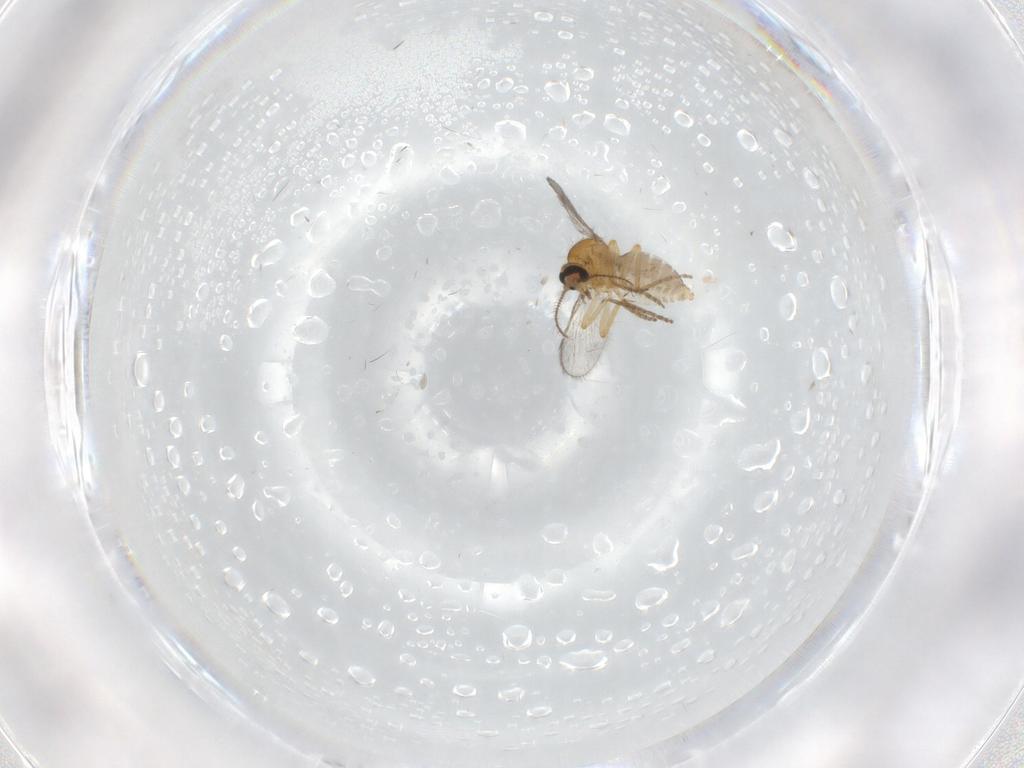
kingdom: Animalia
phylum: Arthropoda
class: Insecta
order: Diptera
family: Ceratopogonidae
